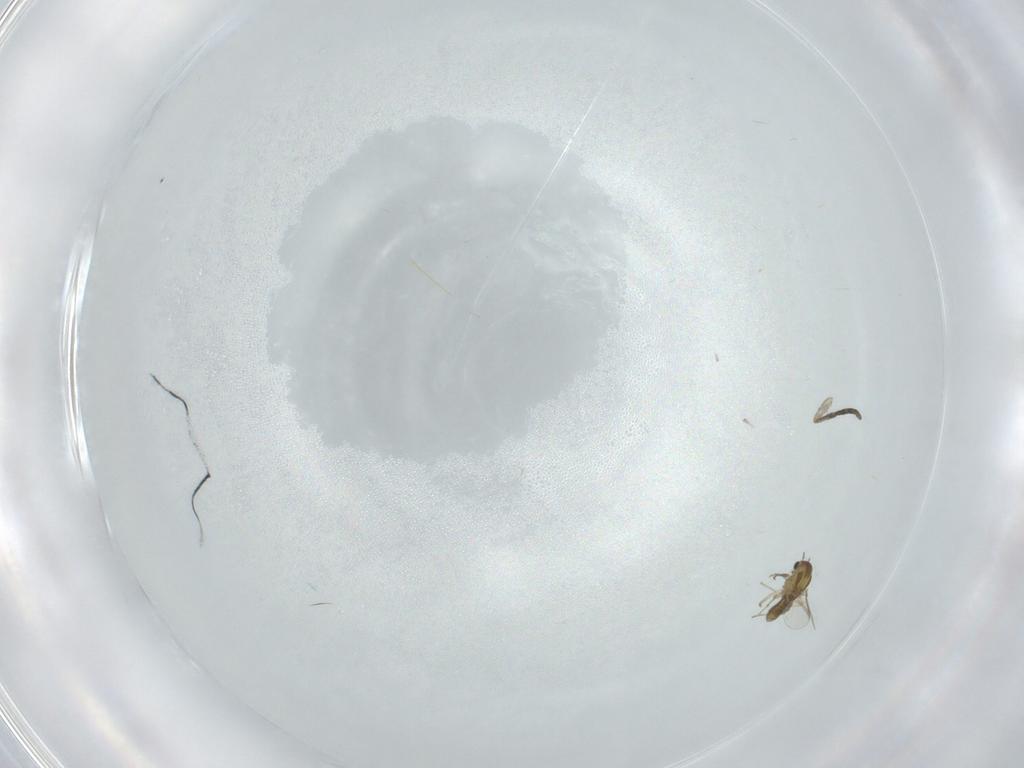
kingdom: Animalia
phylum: Arthropoda
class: Insecta
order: Diptera
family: Chironomidae
